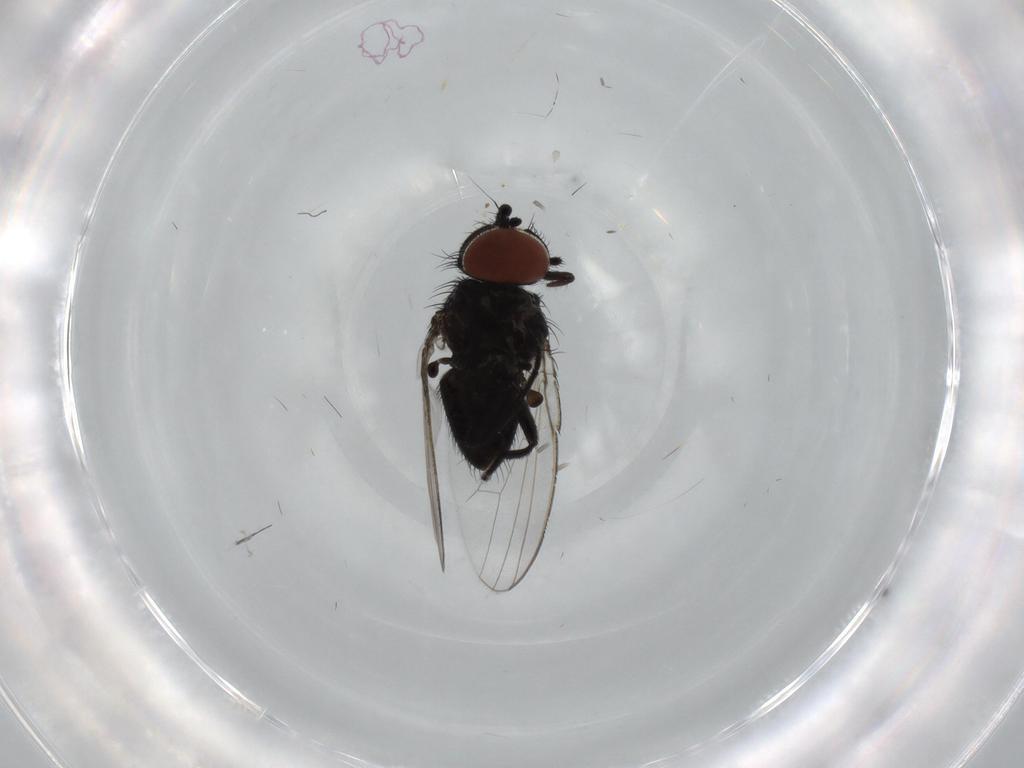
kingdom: Animalia
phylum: Arthropoda
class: Insecta
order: Diptera
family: Milichiidae
